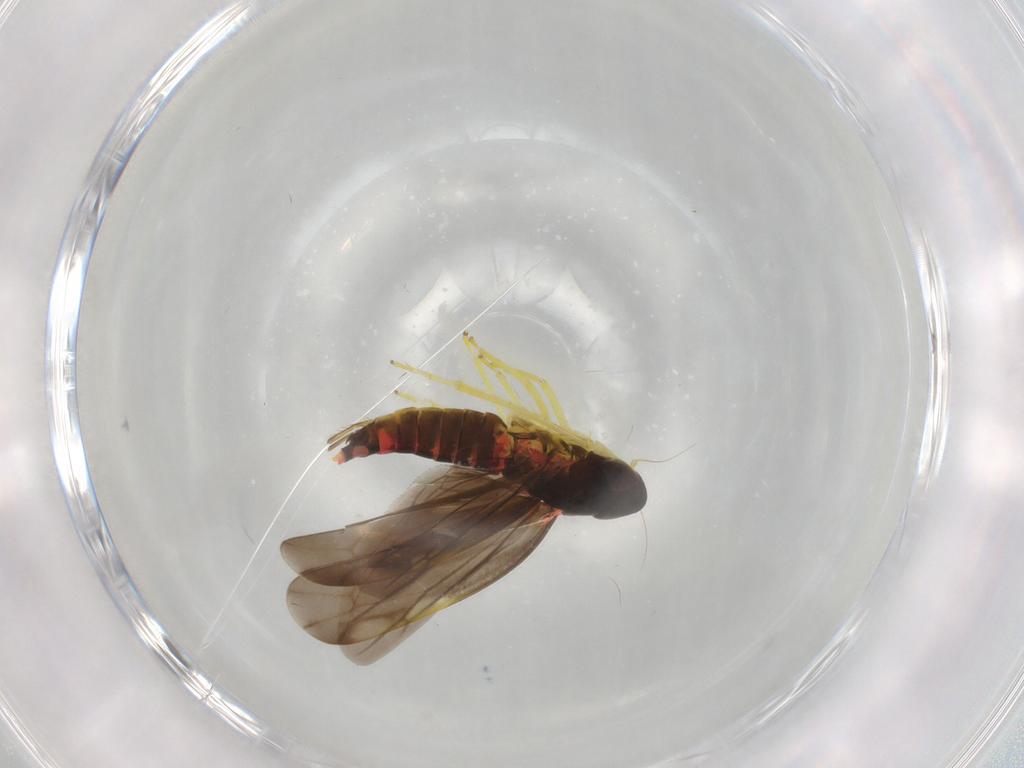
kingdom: Animalia
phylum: Arthropoda
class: Insecta
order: Hemiptera
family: Cicadellidae
